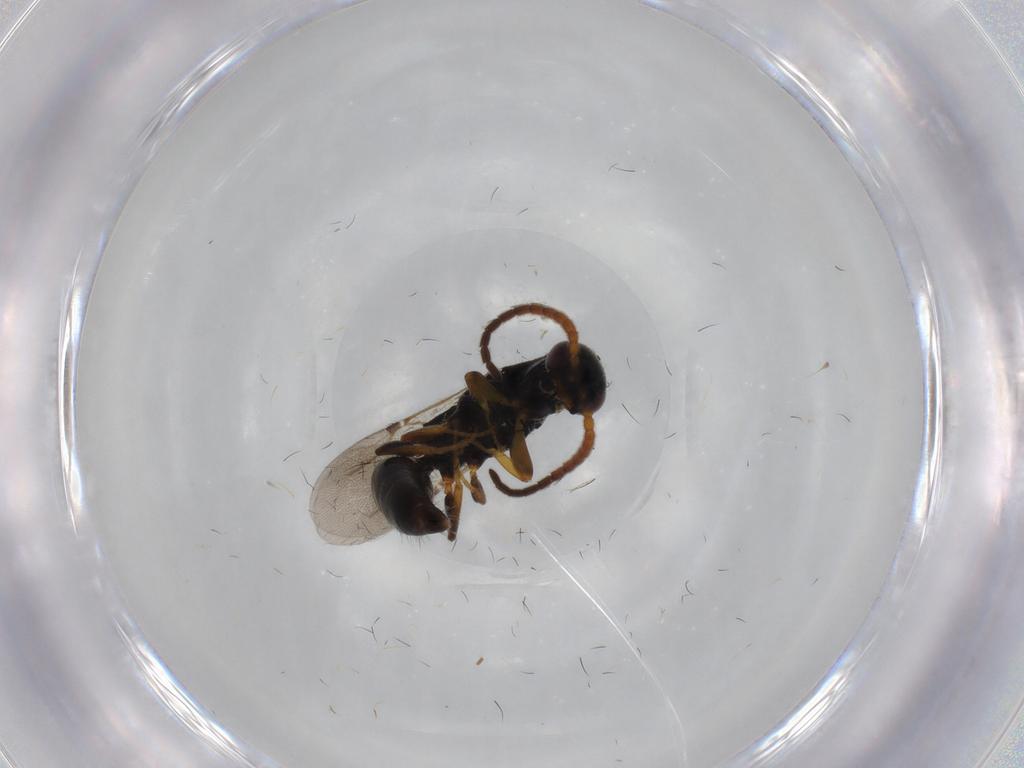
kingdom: Animalia
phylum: Arthropoda
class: Insecta
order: Hymenoptera
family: Bethylidae
